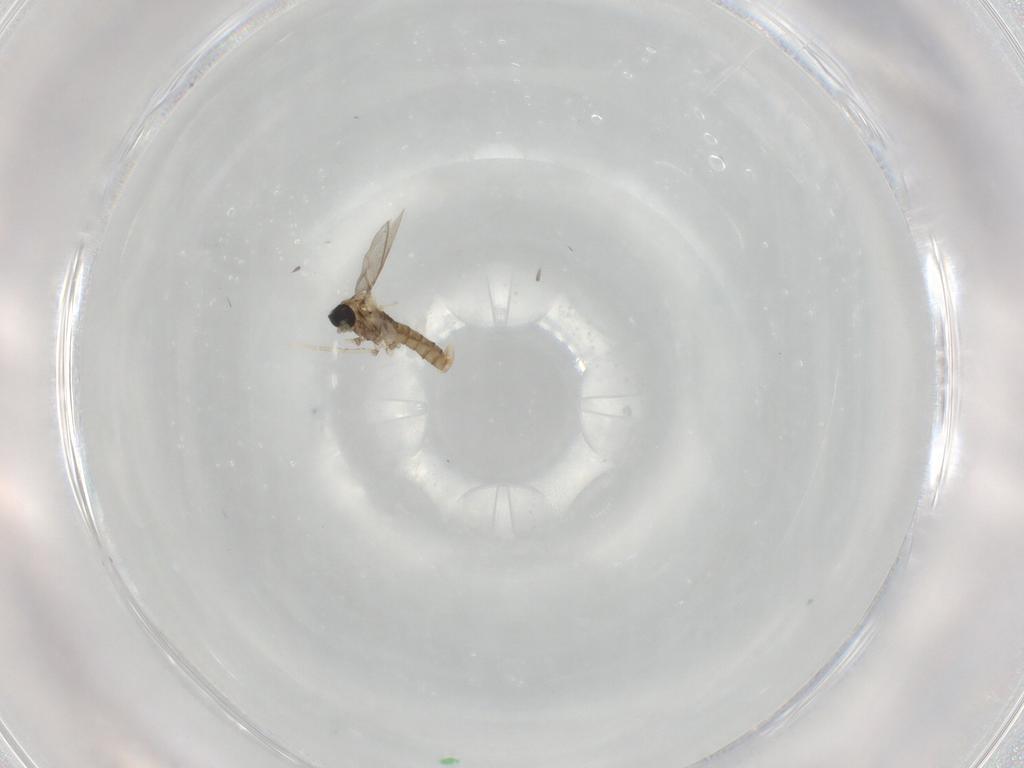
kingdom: Animalia
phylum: Arthropoda
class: Insecta
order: Diptera
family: Cecidomyiidae
